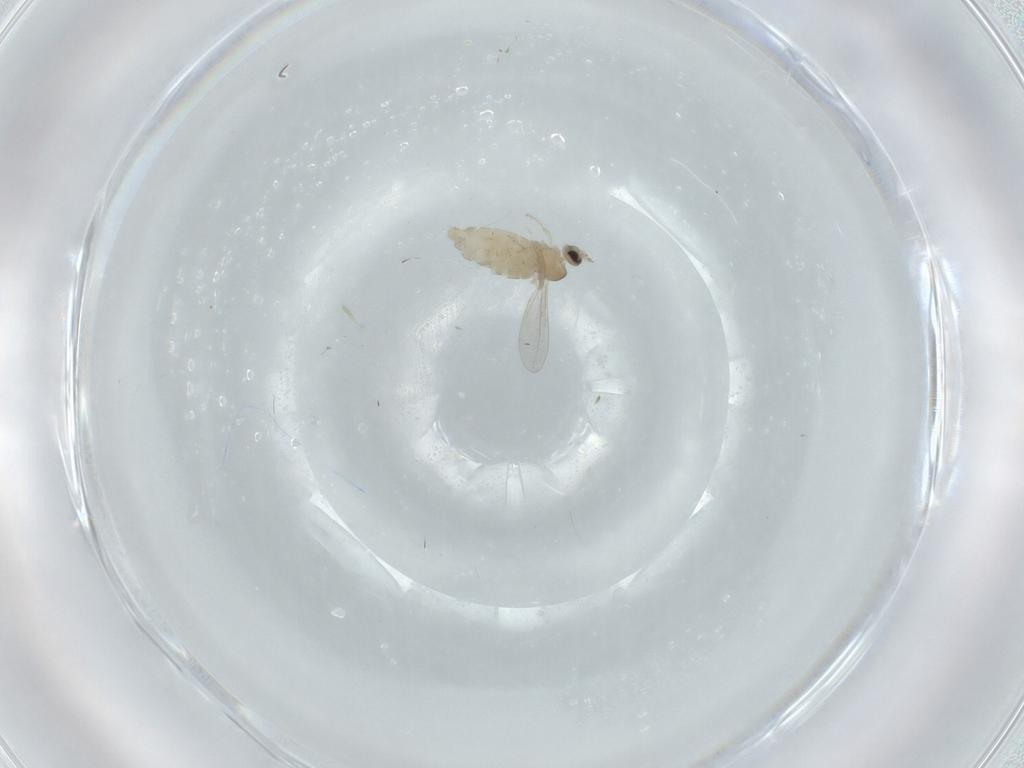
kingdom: Animalia
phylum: Arthropoda
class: Insecta
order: Diptera
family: Cecidomyiidae
